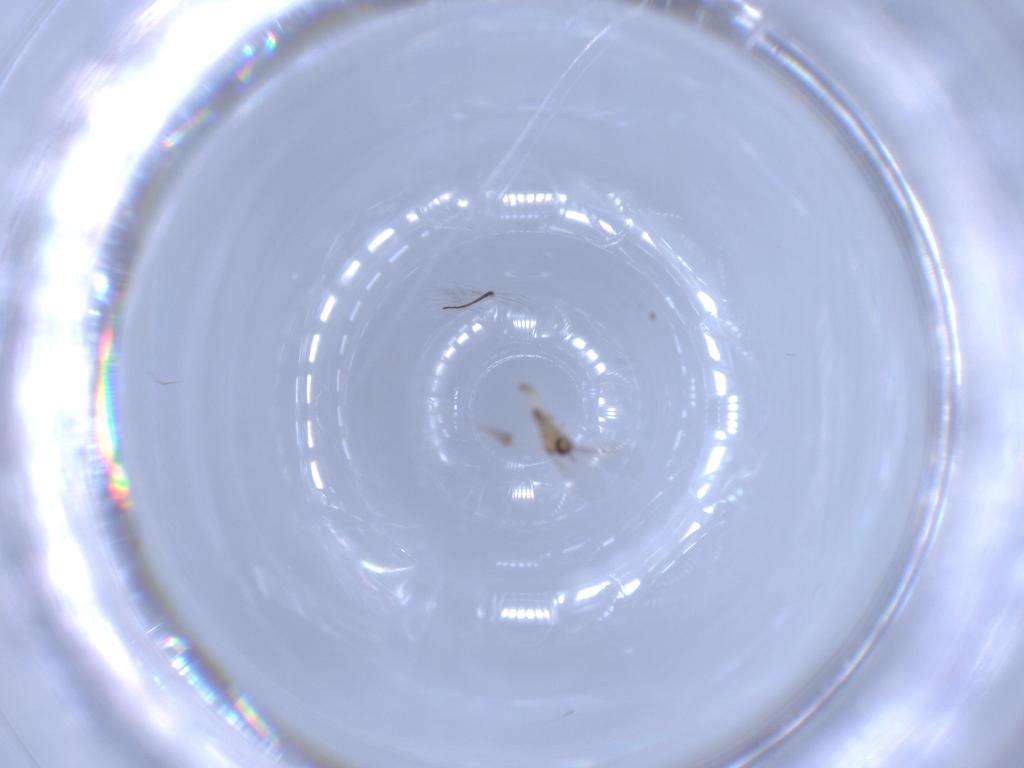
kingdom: Animalia
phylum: Arthropoda
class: Insecta
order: Diptera
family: Cecidomyiidae
